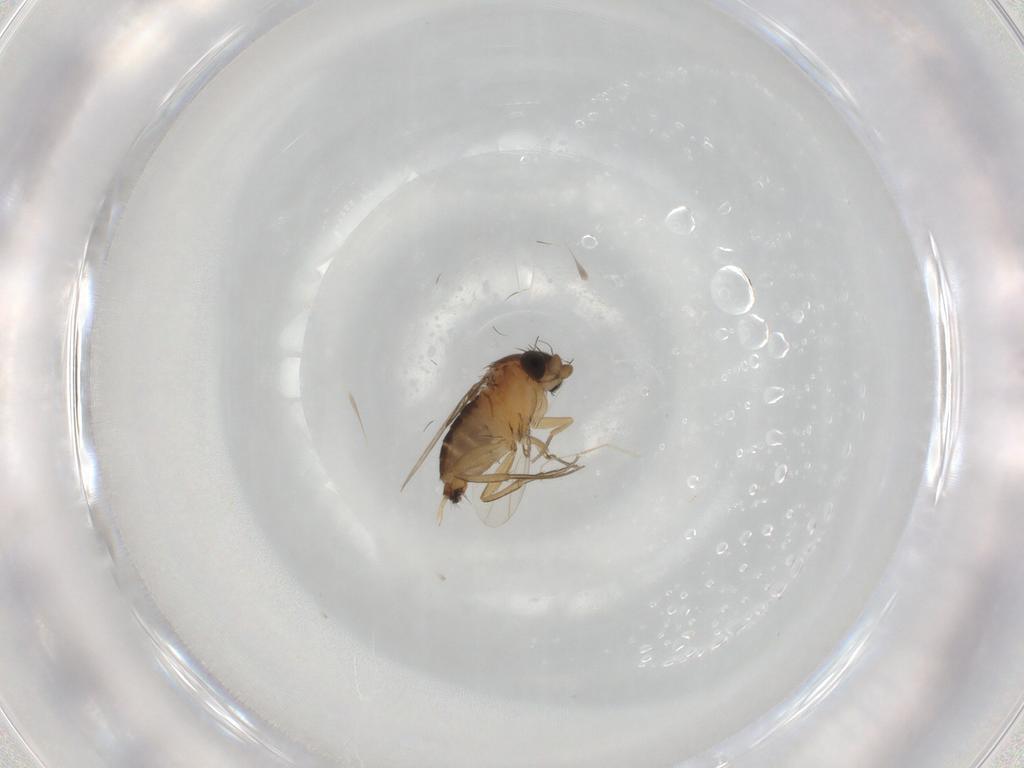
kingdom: Animalia
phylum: Arthropoda
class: Insecta
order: Diptera
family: Phoridae
